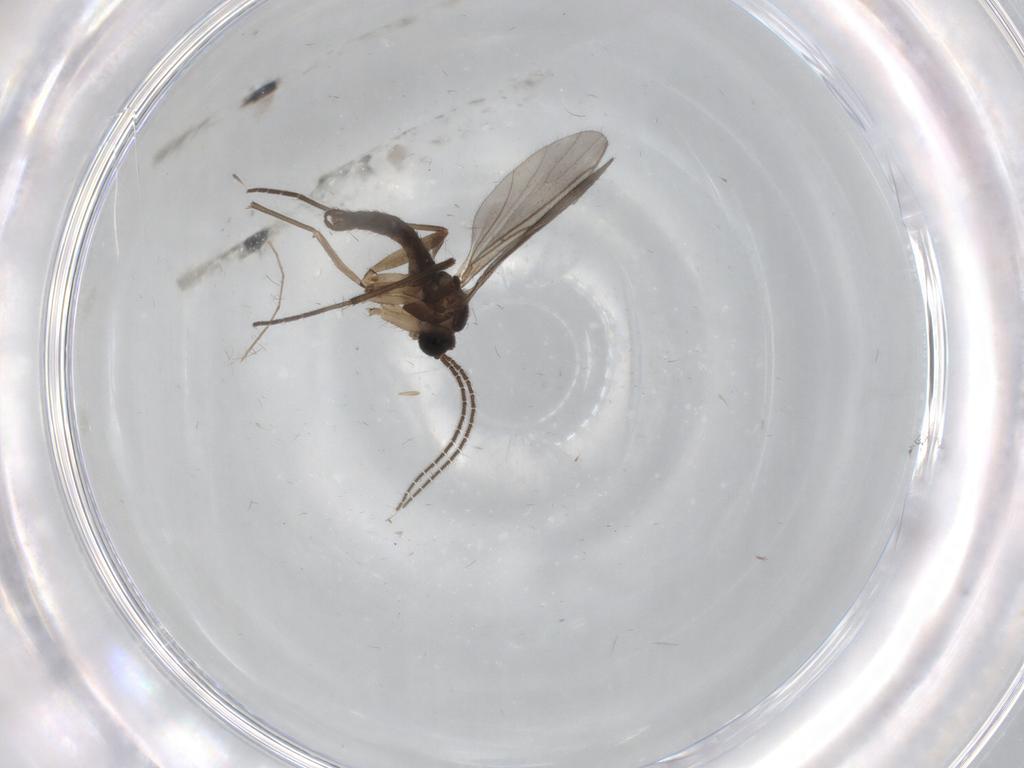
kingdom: Animalia
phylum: Arthropoda
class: Insecta
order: Diptera
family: Sciaridae
